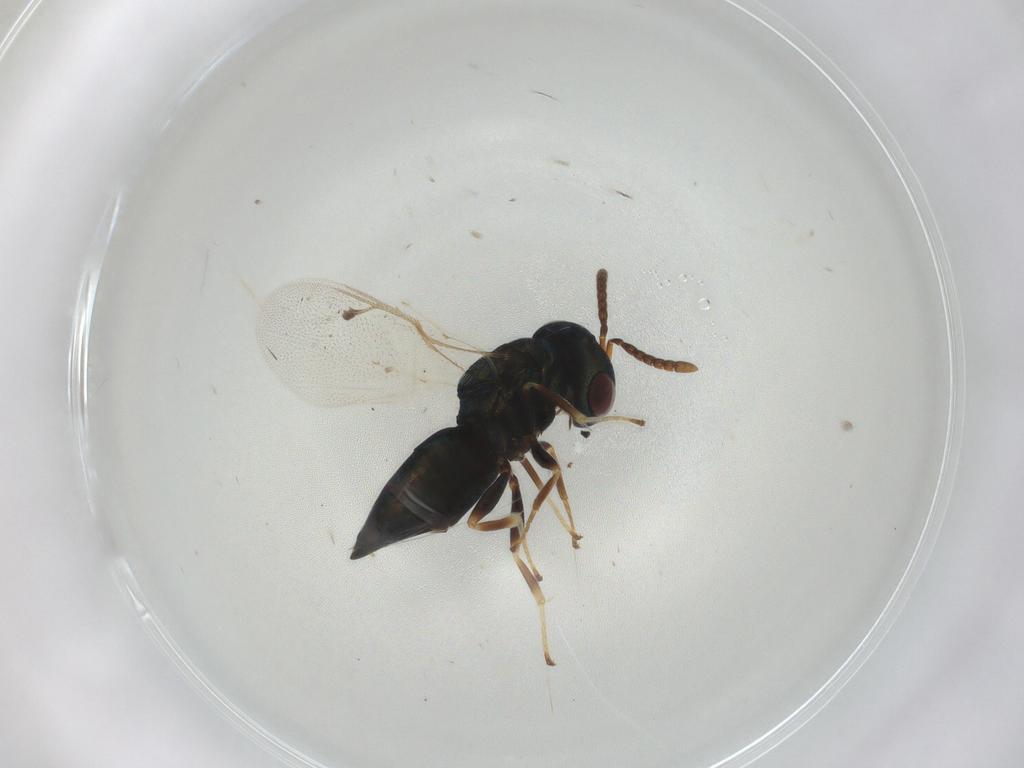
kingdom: Animalia
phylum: Arthropoda
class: Insecta
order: Hymenoptera
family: Pteromalidae
